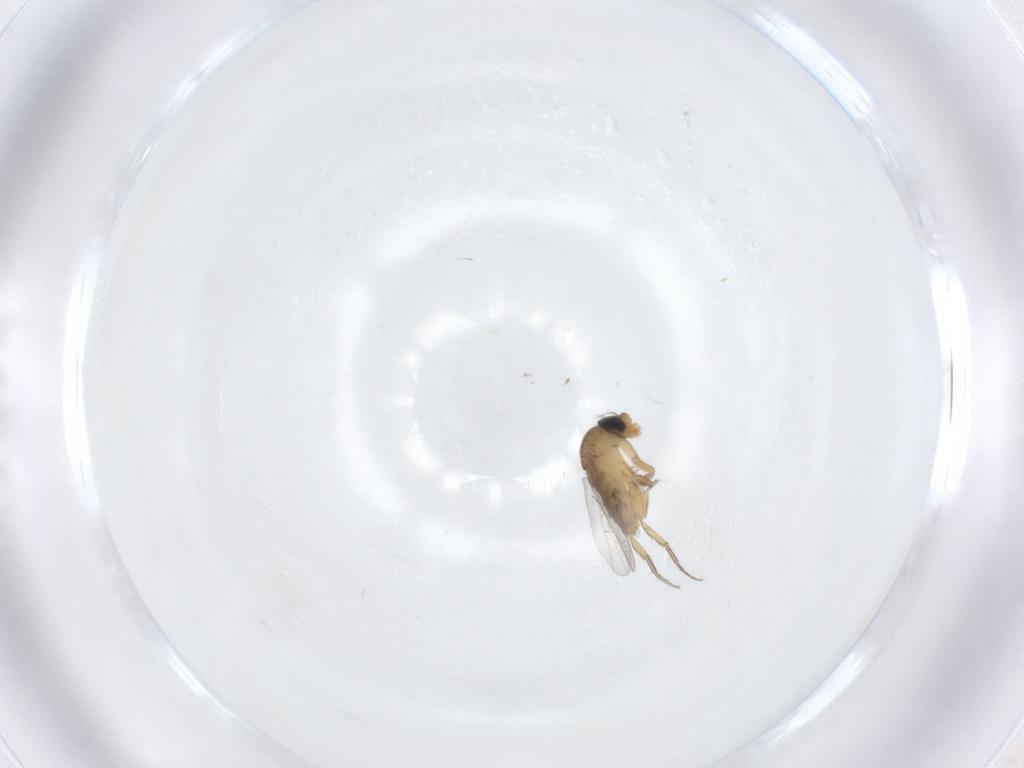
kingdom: Animalia
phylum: Arthropoda
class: Insecta
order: Diptera
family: Phoridae
